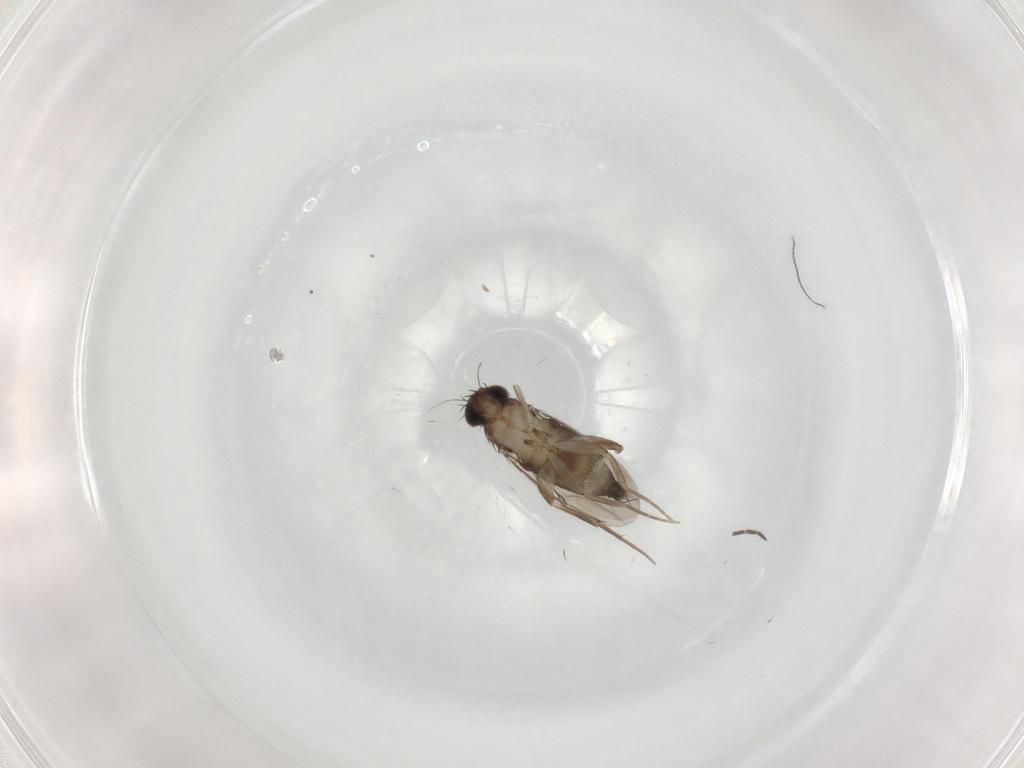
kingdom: Animalia
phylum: Arthropoda
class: Insecta
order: Diptera
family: Phoridae
